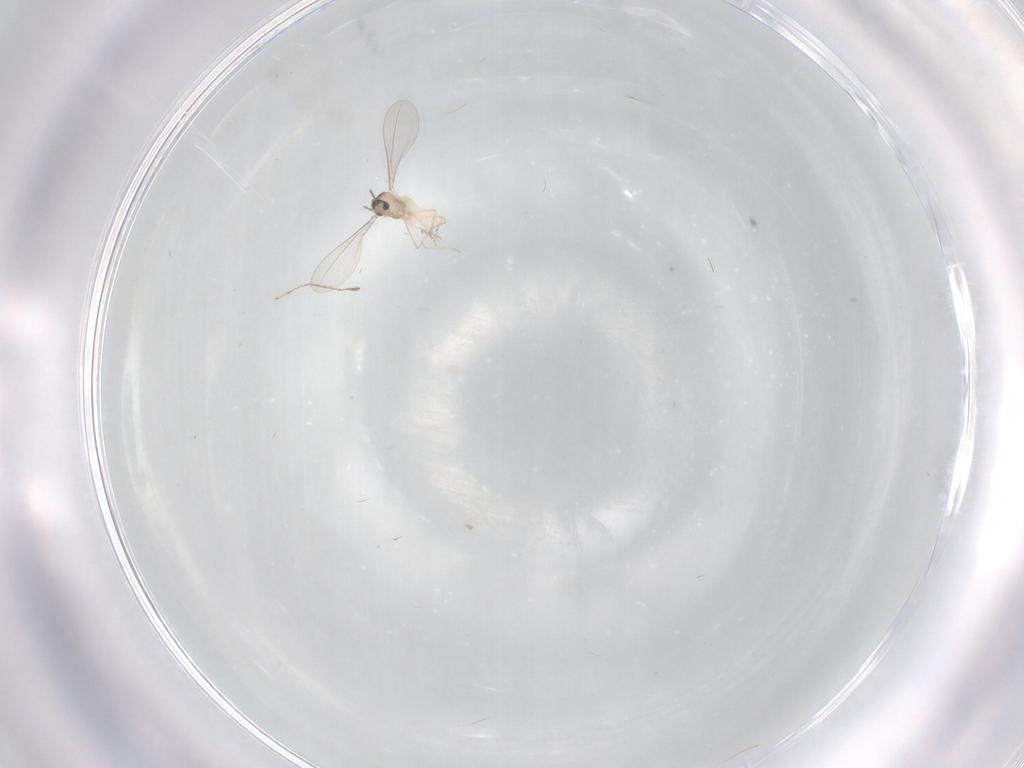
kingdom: Animalia
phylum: Arthropoda
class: Insecta
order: Diptera
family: Cecidomyiidae
